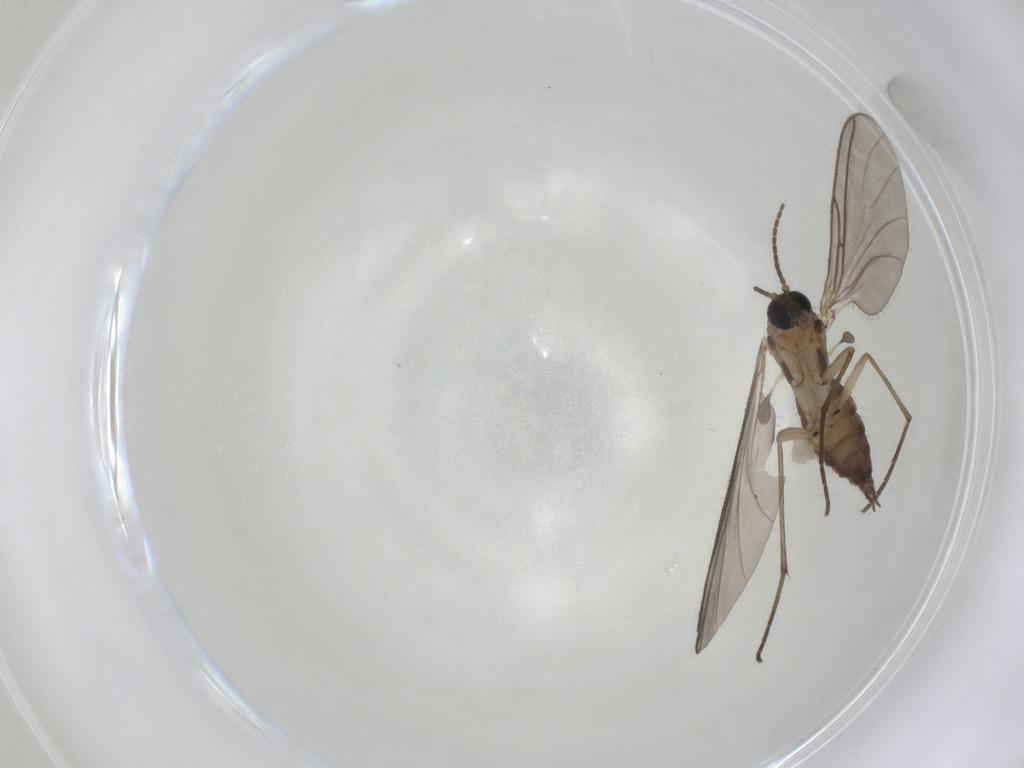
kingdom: Animalia
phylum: Arthropoda
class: Insecta
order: Diptera
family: Sciaridae
